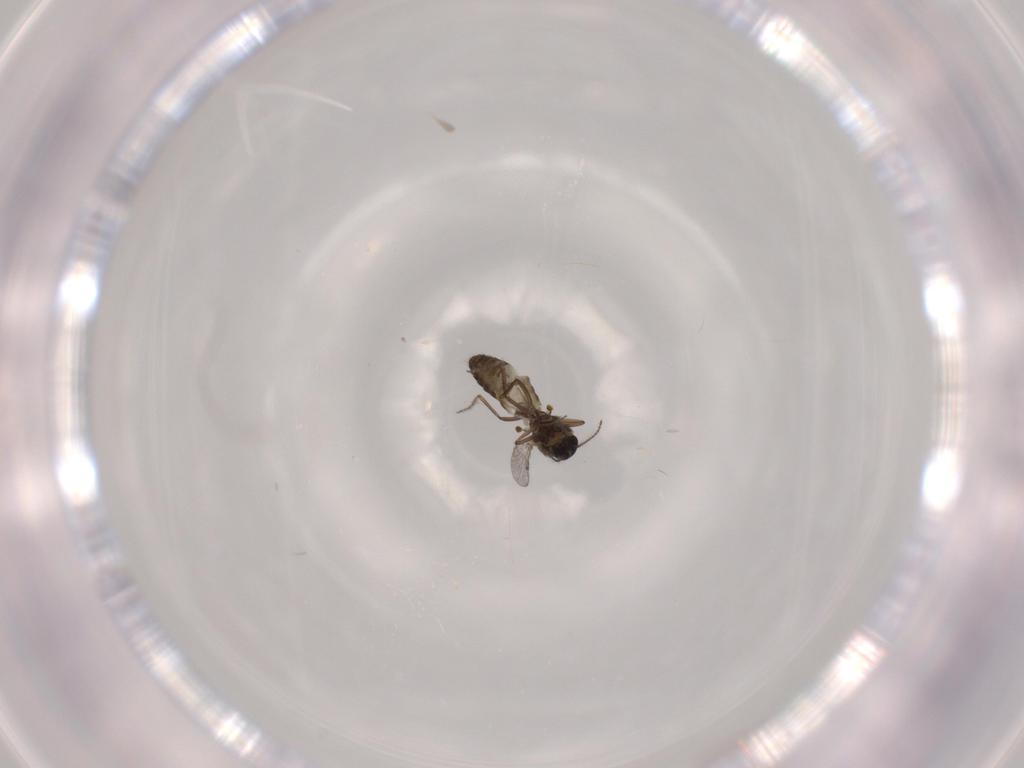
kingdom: Animalia
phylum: Arthropoda
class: Insecta
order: Diptera
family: Ceratopogonidae
